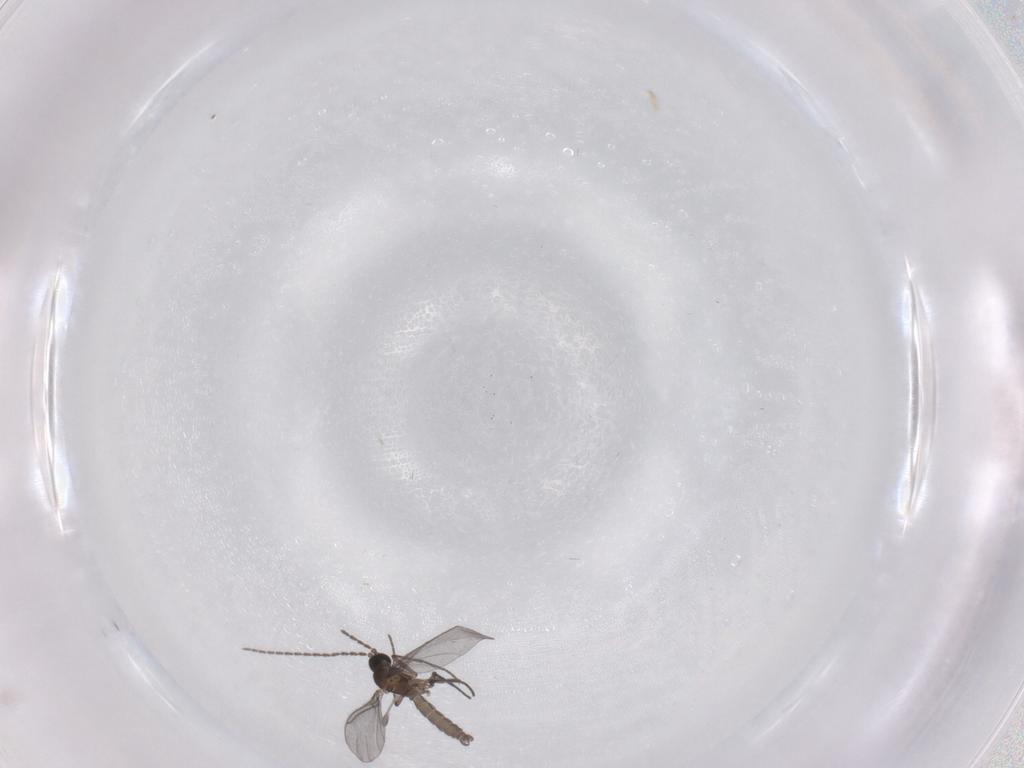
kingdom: Animalia
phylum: Arthropoda
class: Insecta
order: Diptera
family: Sciaridae
